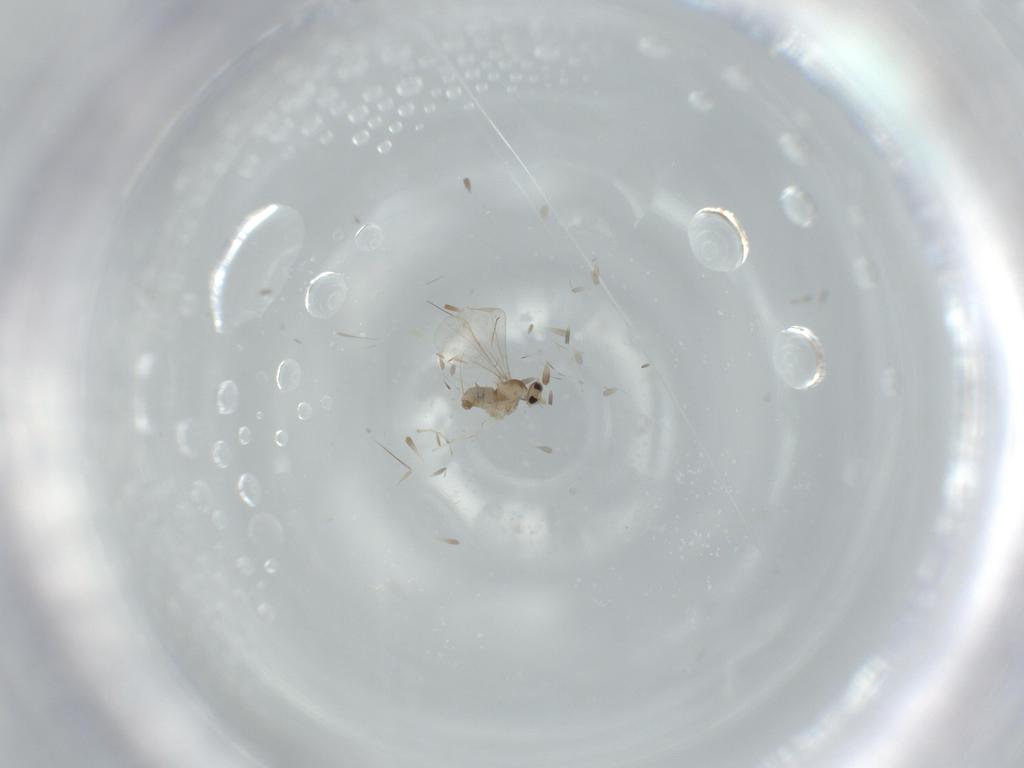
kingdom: Animalia
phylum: Arthropoda
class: Insecta
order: Diptera
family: Cecidomyiidae
